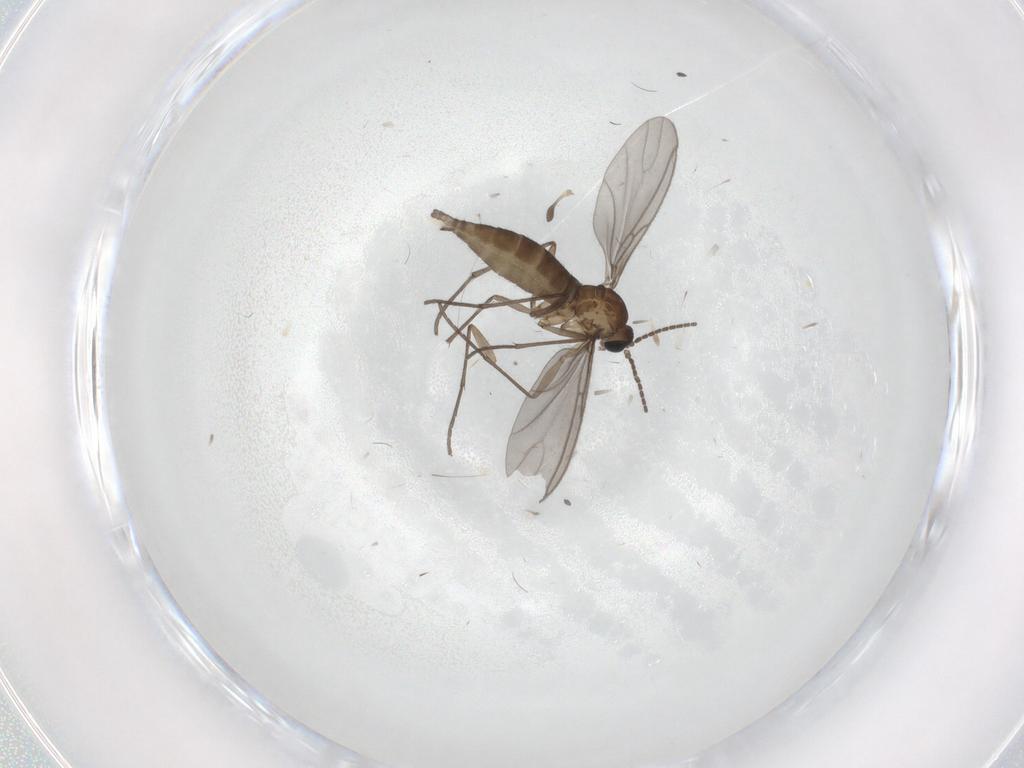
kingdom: Animalia
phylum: Arthropoda
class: Insecta
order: Diptera
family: Sciaridae
